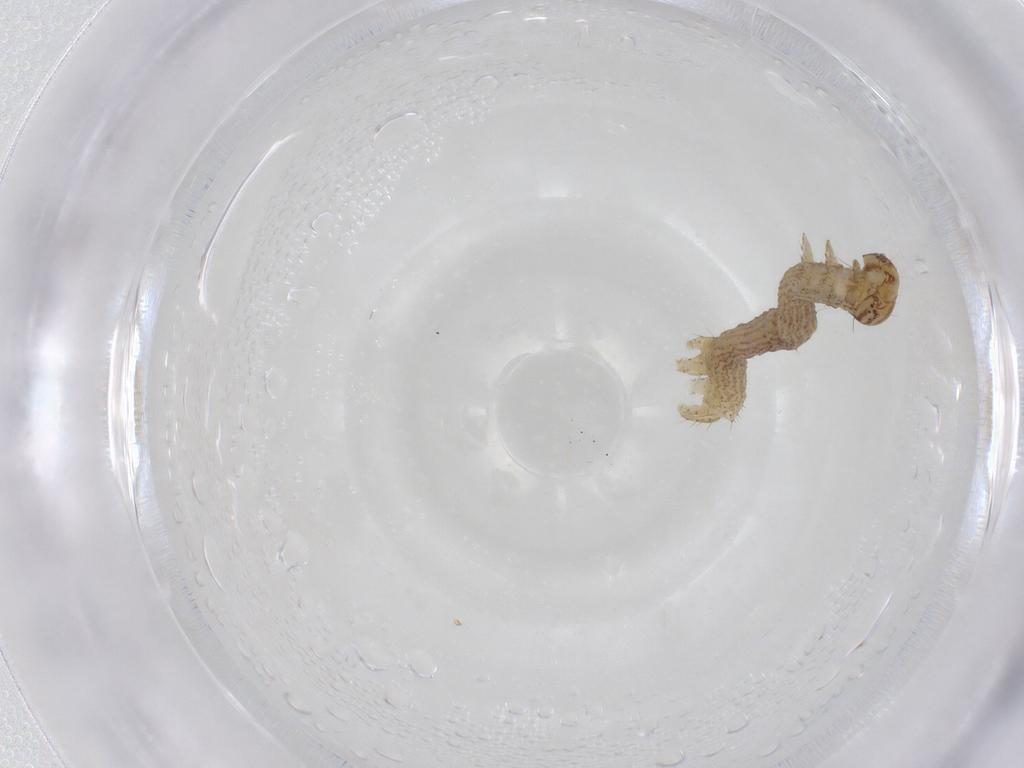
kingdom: Animalia
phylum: Arthropoda
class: Insecta
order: Lepidoptera
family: Geometridae
